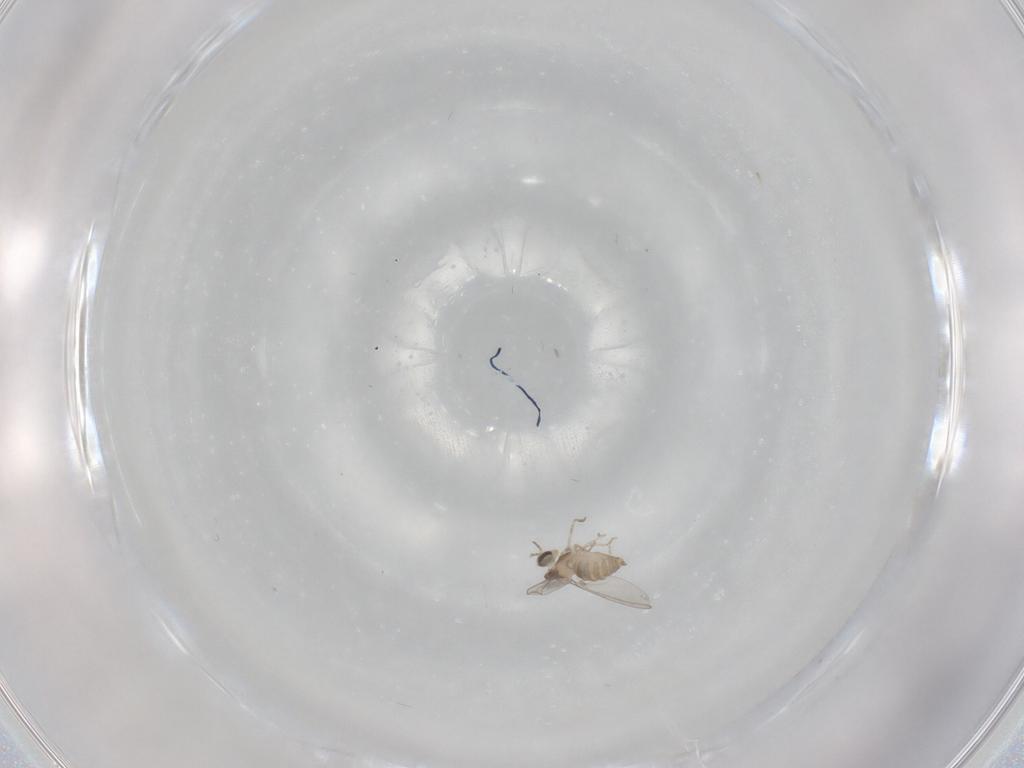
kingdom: Animalia
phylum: Arthropoda
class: Insecta
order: Diptera
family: Cecidomyiidae
